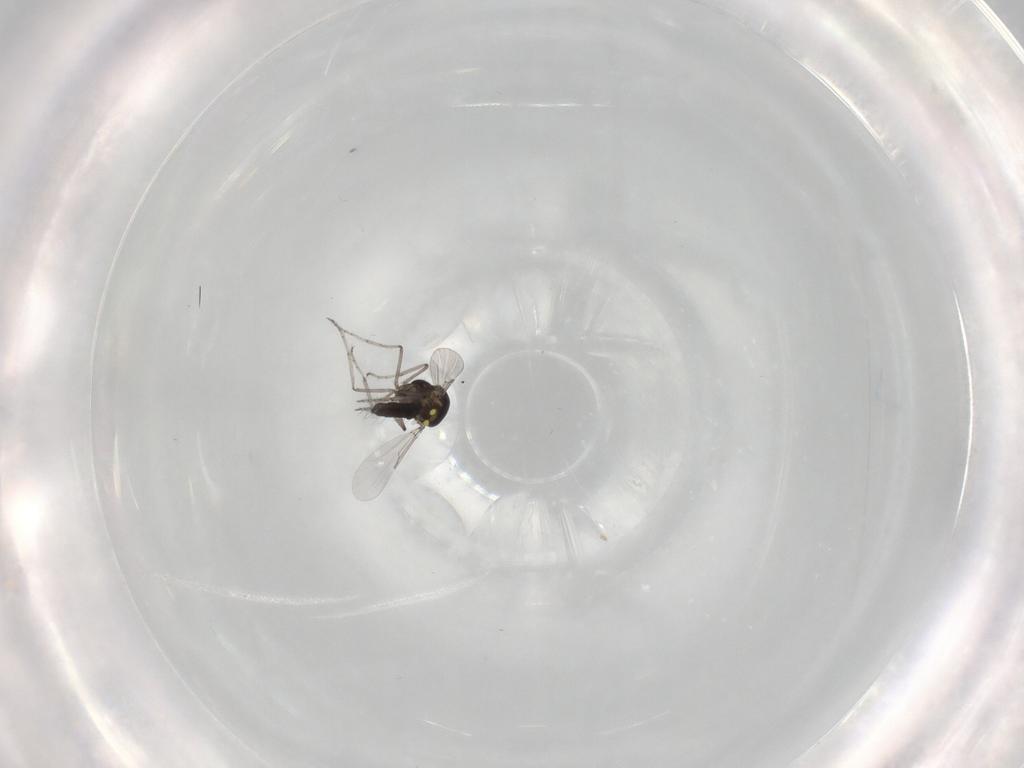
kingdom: Animalia
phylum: Arthropoda
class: Insecta
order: Diptera
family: Ceratopogonidae
